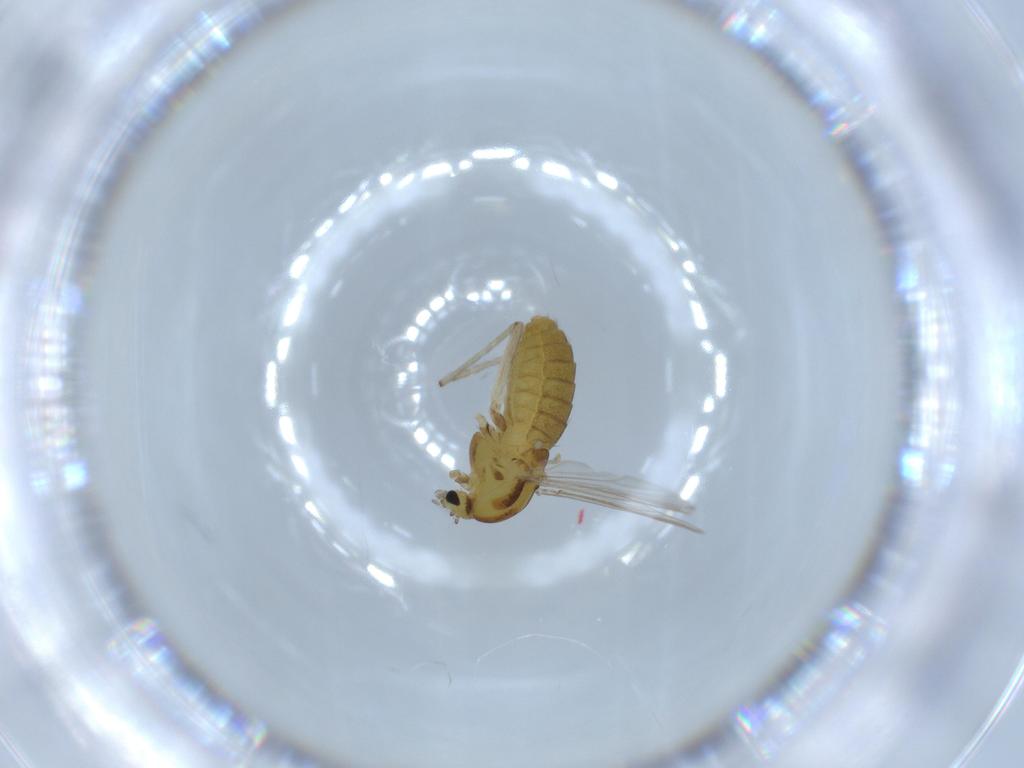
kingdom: Animalia
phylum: Arthropoda
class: Insecta
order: Diptera
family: Chironomidae
